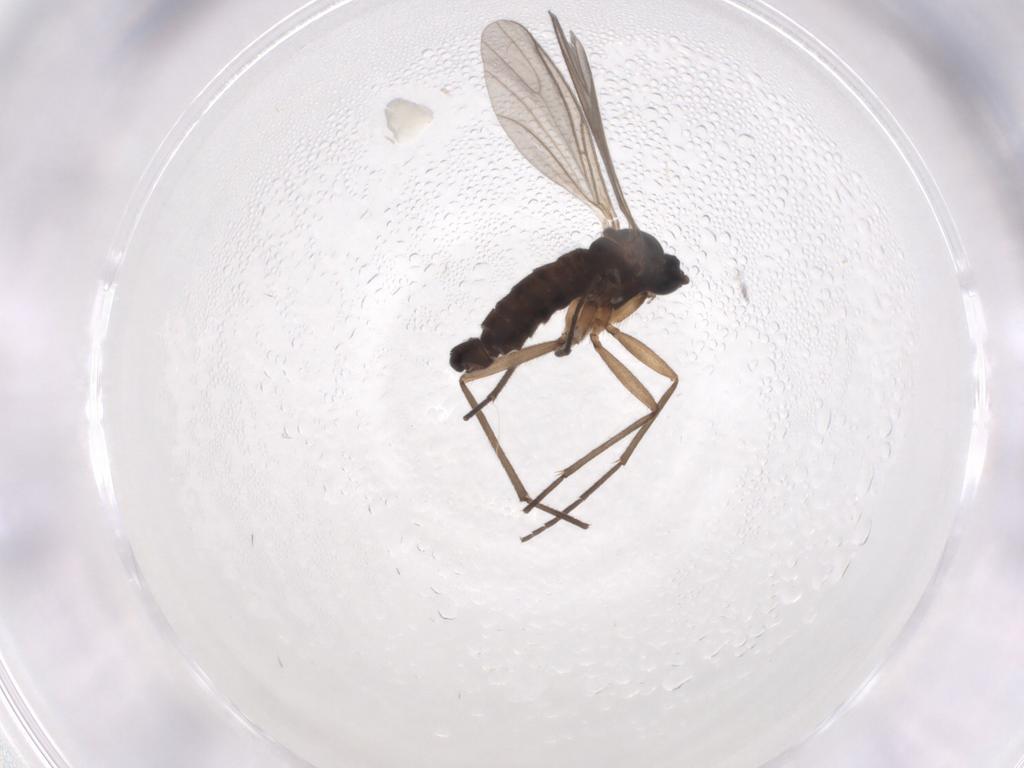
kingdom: Animalia
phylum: Arthropoda
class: Insecta
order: Diptera
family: Sciaridae
